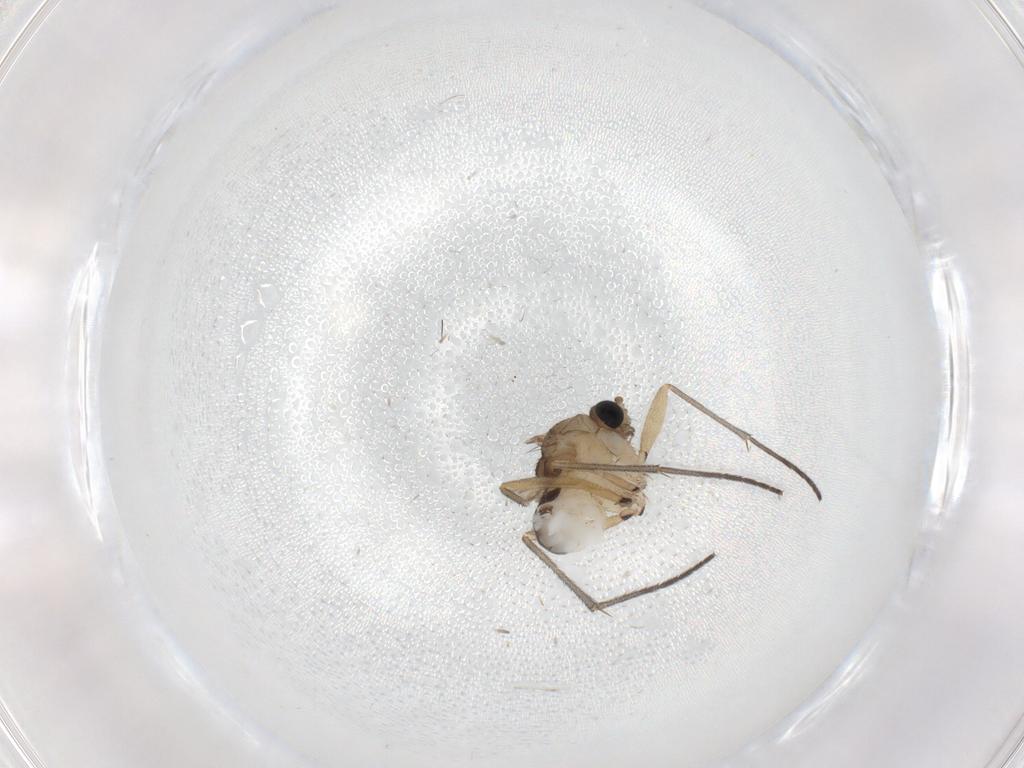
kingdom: Animalia
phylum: Arthropoda
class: Insecta
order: Diptera
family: Sciaridae
